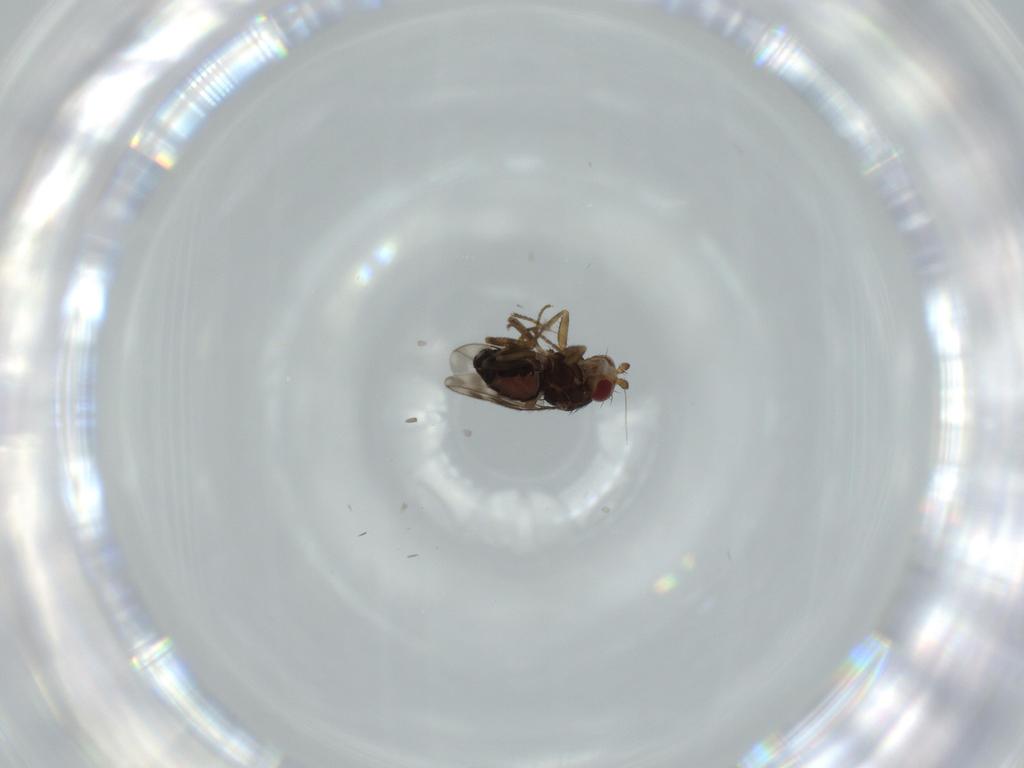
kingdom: Animalia
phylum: Arthropoda
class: Insecta
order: Diptera
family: Sphaeroceridae
